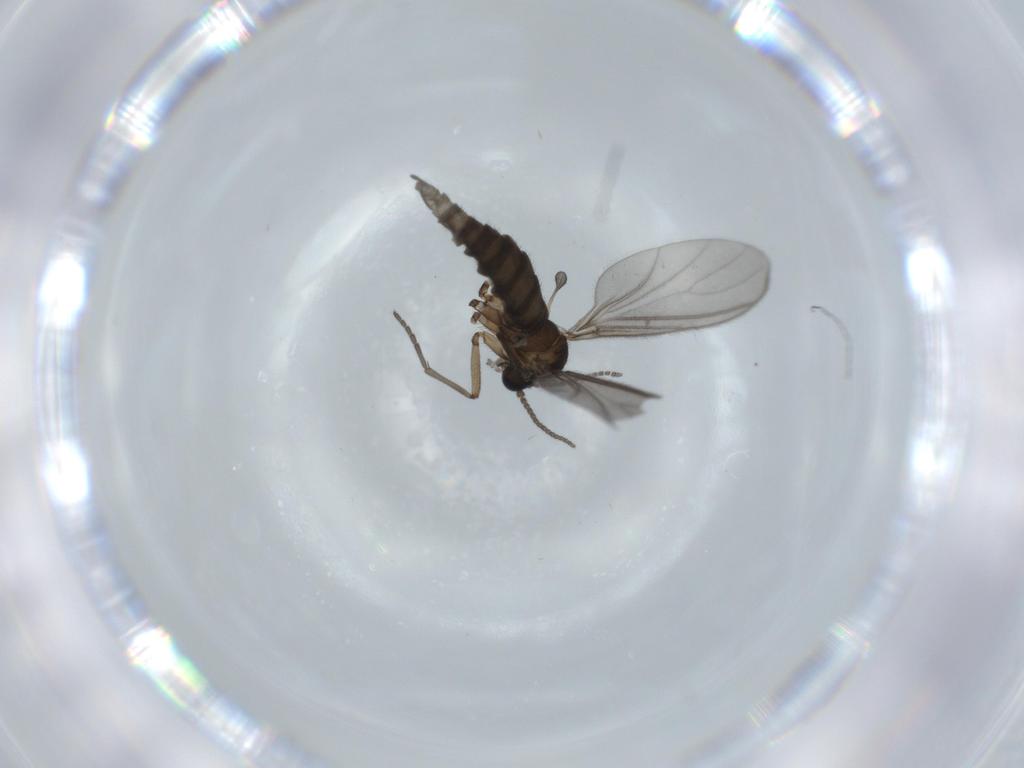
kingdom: Animalia
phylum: Arthropoda
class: Insecta
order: Diptera
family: Sciaridae
